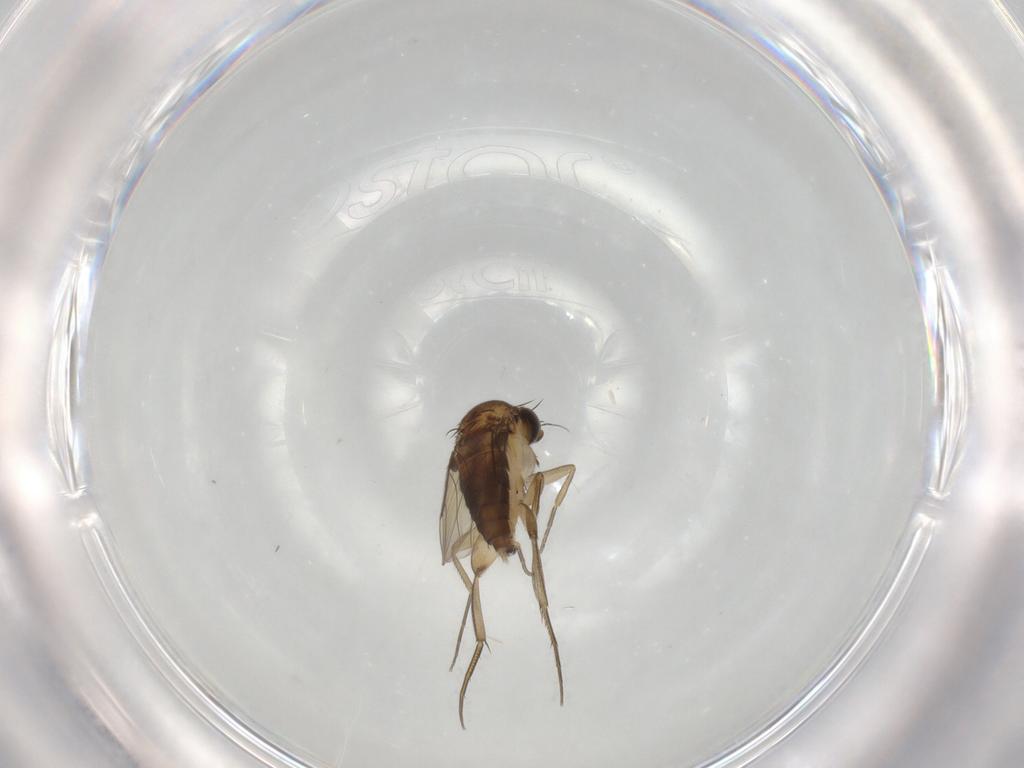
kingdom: Animalia
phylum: Arthropoda
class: Insecta
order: Diptera
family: Phoridae
